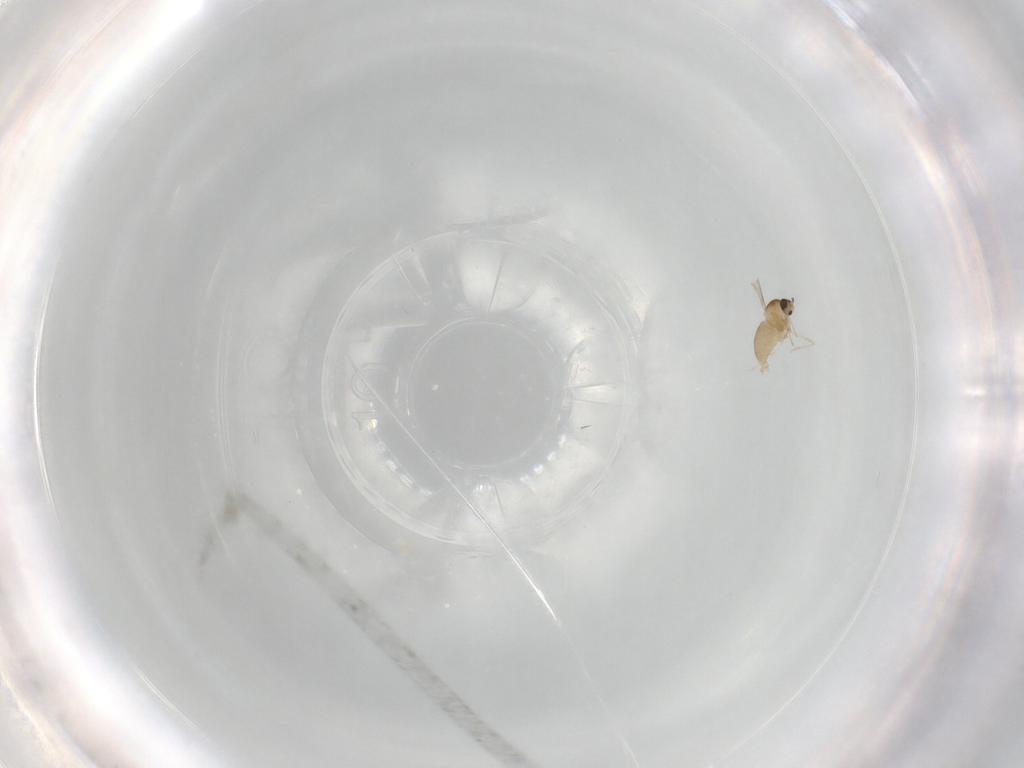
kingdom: Animalia
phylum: Arthropoda
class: Insecta
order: Diptera
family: Cecidomyiidae
